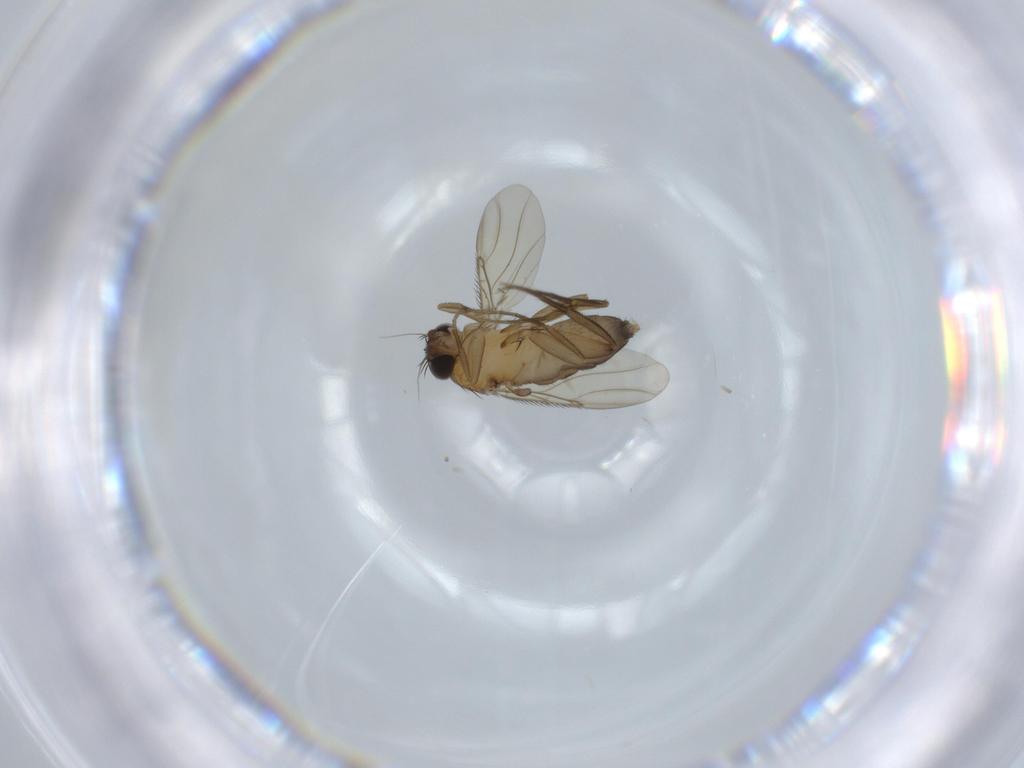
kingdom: Animalia
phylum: Arthropoda
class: Insecta
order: Diptera
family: Phoridae
